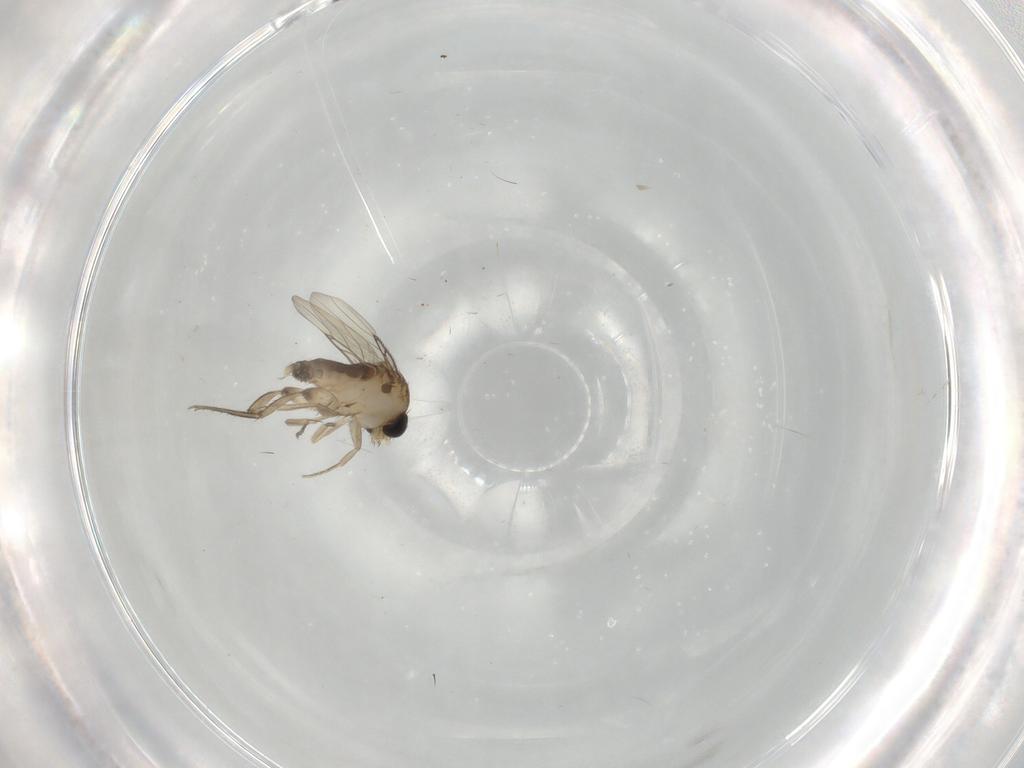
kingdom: Animalia
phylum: Arthropoda
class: Insecta
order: Diptera
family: Phoridae
